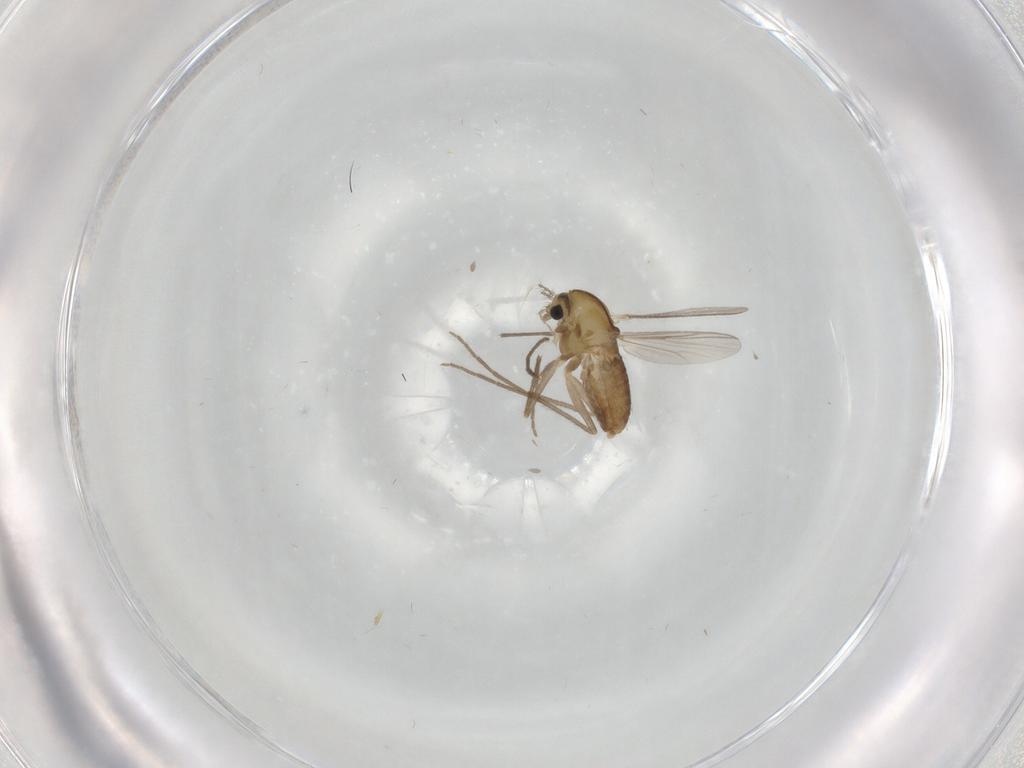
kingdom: Animalia
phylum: Arthropoda
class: Insecta
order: Diptera
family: Chironomidae
